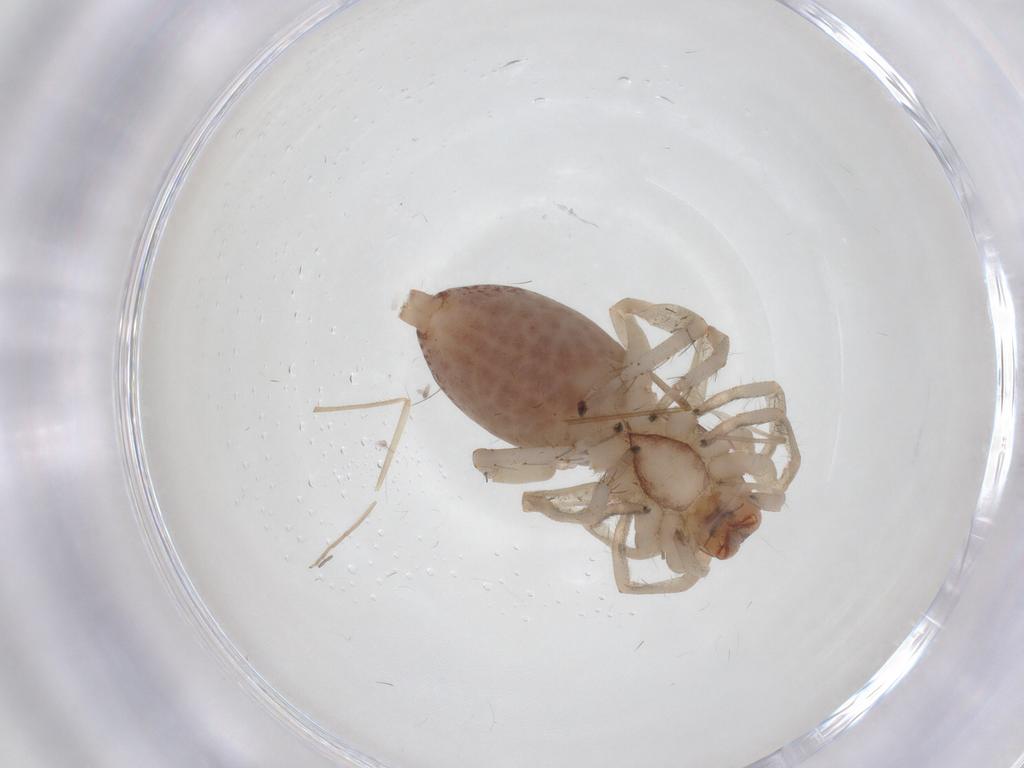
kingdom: Animalia
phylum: Arthropoda
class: Arachnida
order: Araneae
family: Clubionidae
